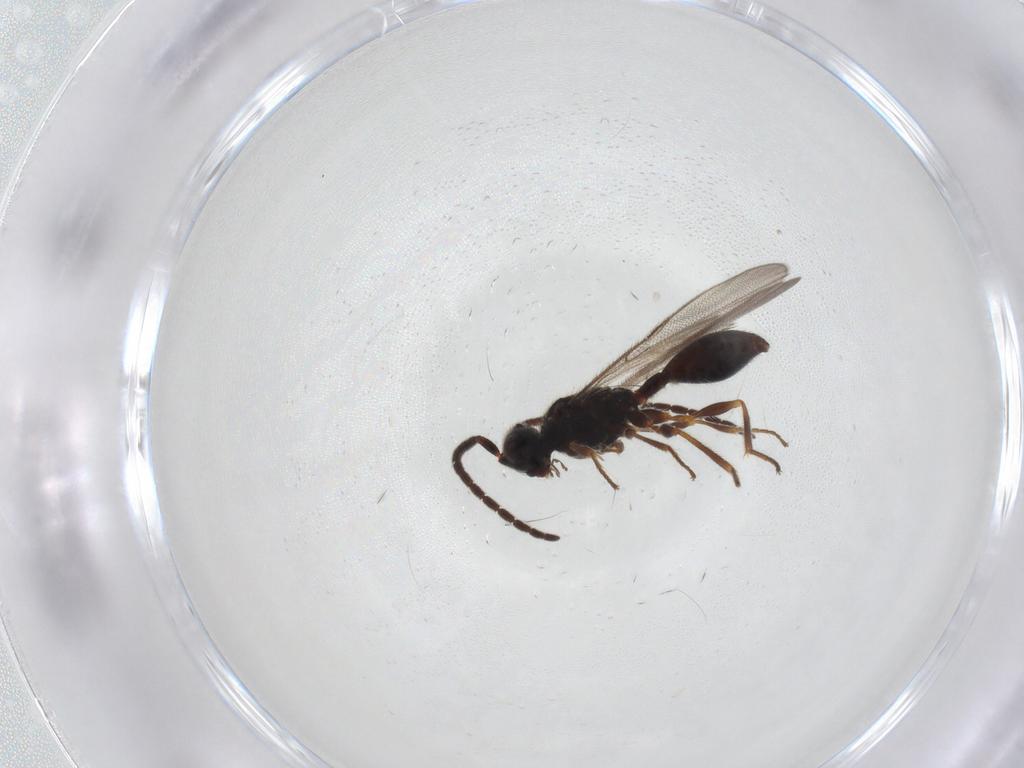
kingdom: Animalia
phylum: Arthropoda
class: Insecta
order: Hymenoptera
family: Diapriidae
